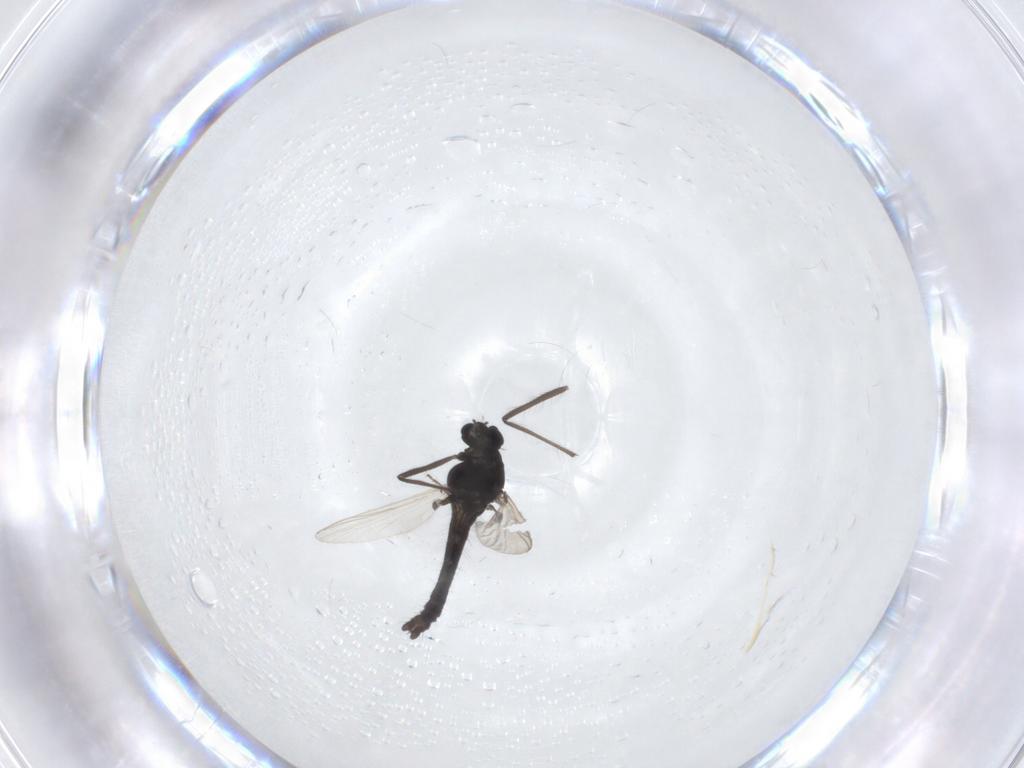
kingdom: Animalia
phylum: Arthropoda
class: Insecta
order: Diptera
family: Chironomidae
